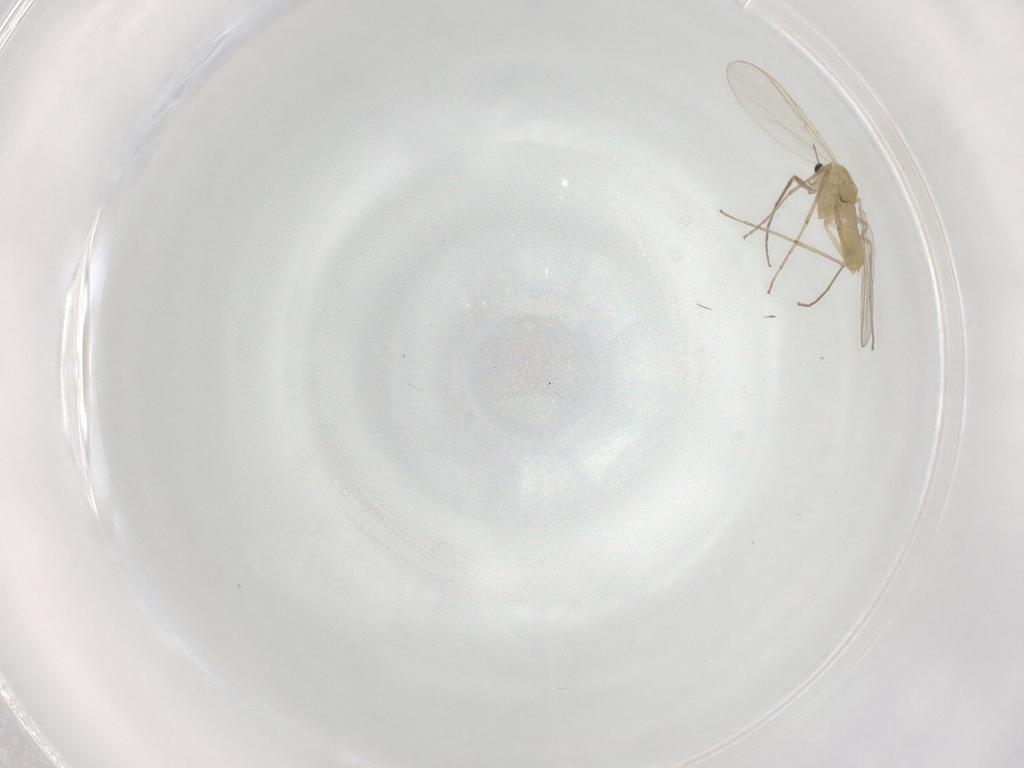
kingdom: Animalia
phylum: Arthropoda
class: Insecta
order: Diptera
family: Chironomidae
